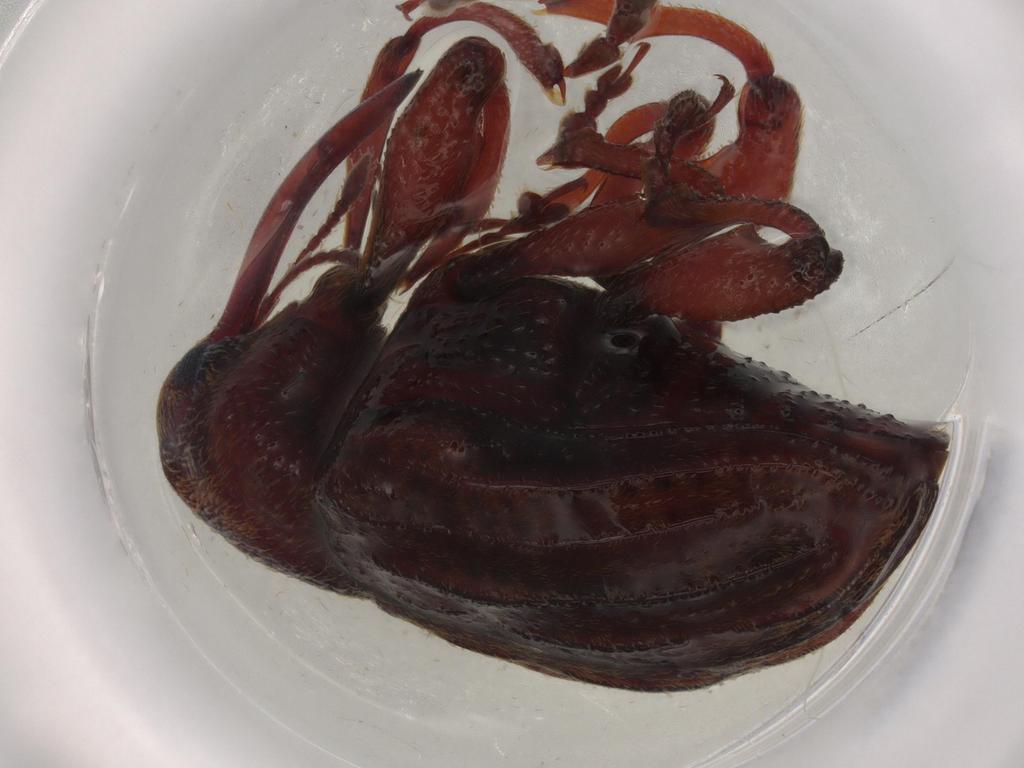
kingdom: Animalia
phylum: Arthropoda
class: Insecta
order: Coleoptera
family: Curculionidae
